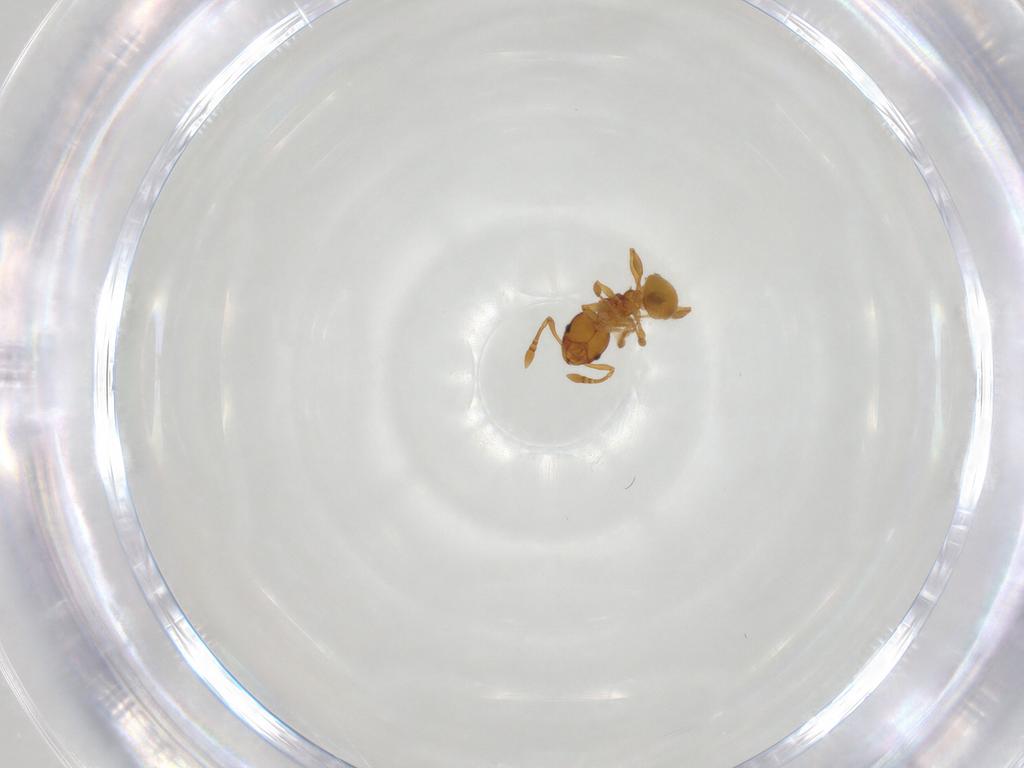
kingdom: Animalia
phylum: Arthropoda
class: Insecta
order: Hymenoptera
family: Formicidae
